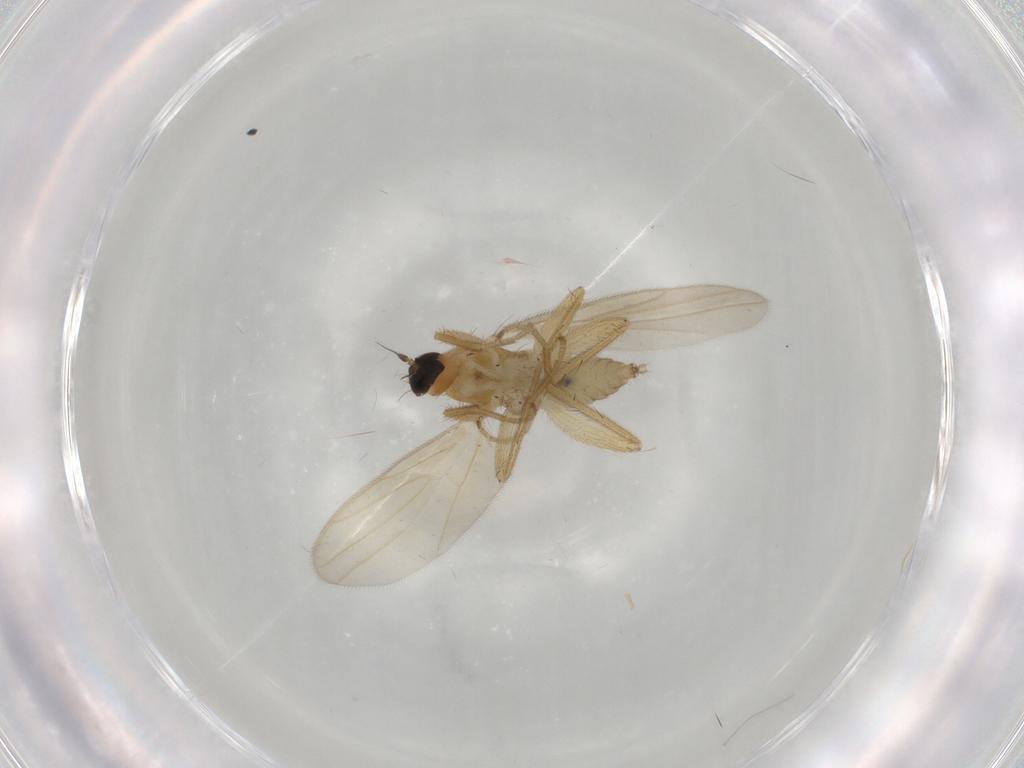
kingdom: Animalia
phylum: Arthropoda
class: Insecta
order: Diptera
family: Hybotidae
